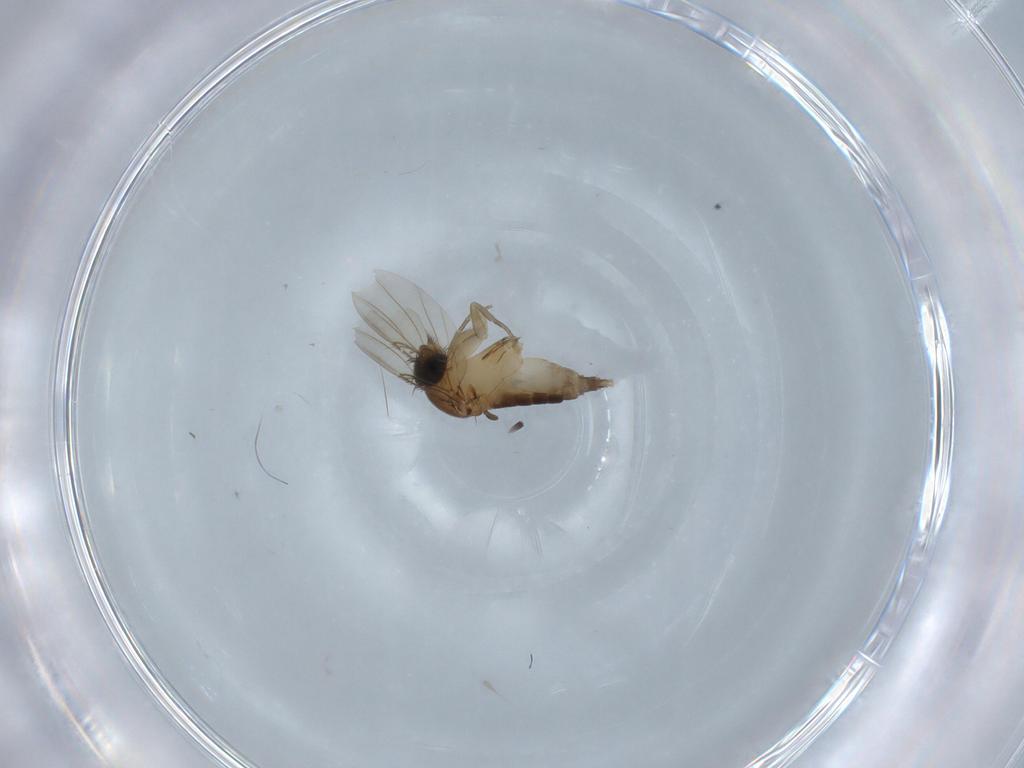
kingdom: Animalia
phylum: Arthropoda
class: Insecta
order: Diptera
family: Phoridae
